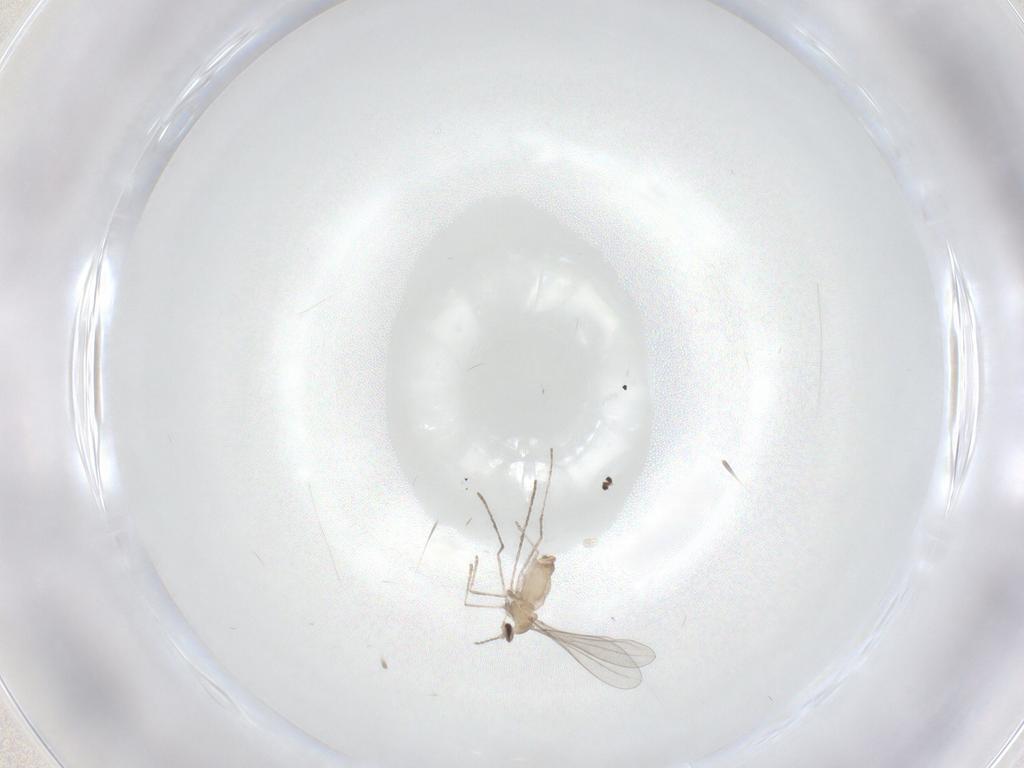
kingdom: Animalia
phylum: Arthropoda
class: Insecta
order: Diptera
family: Cecidomyiidae
